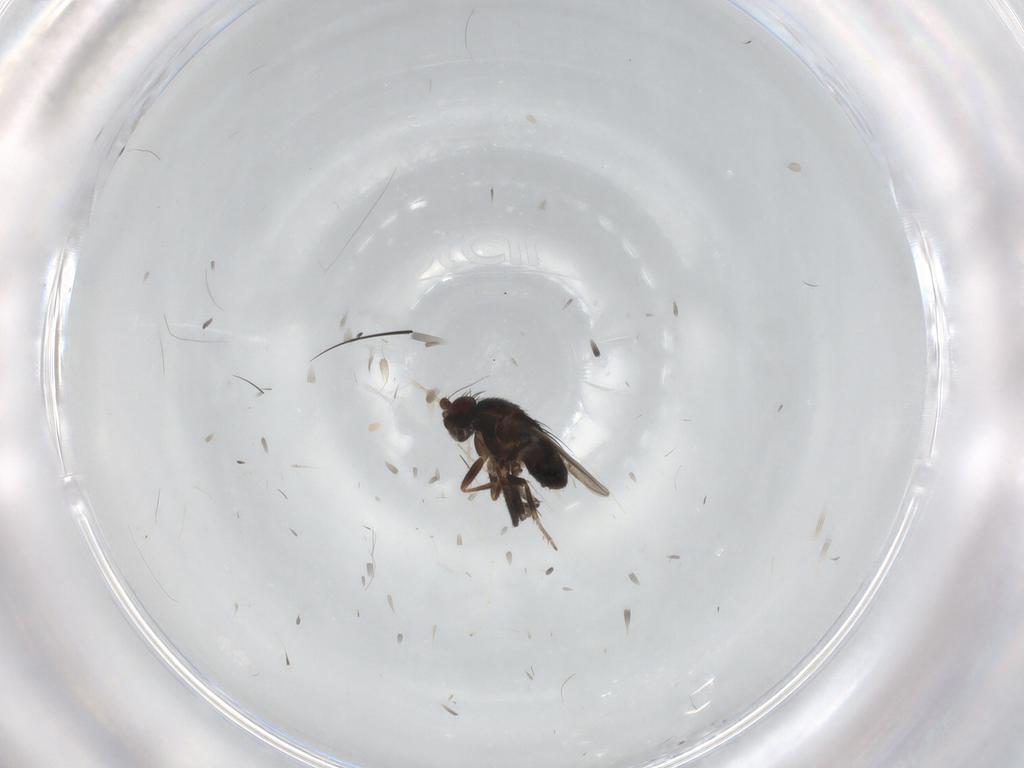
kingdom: Animalia
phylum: Arthropoda
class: Insecta
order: Diptera
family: Sphaeroceridae
